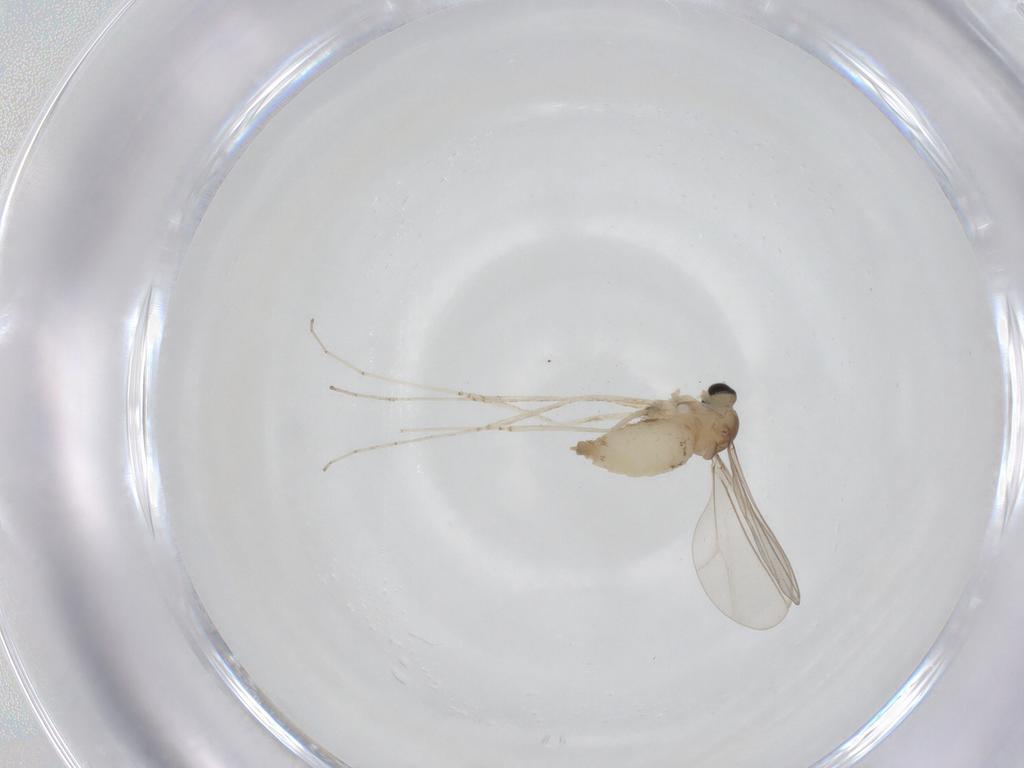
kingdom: Animalia
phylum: Arthropoda
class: Insecta
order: Diptera
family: Cecidomyiidae
